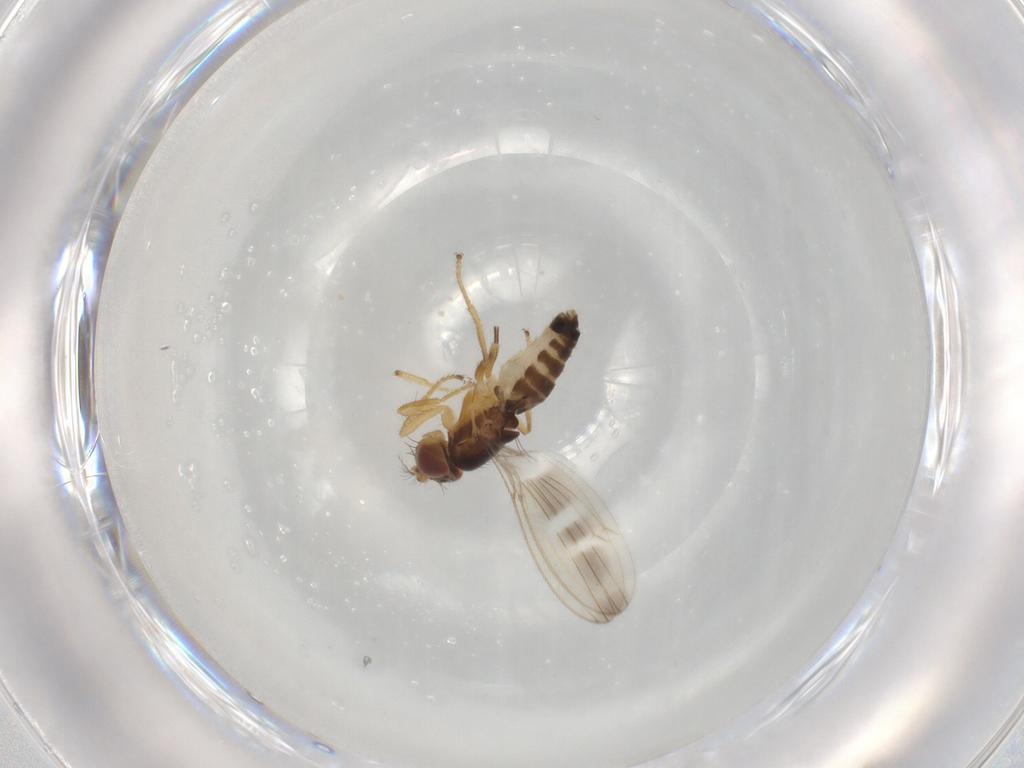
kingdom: Animalia
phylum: Arthropoda
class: Insecta
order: Diptera
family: Periscelididae
